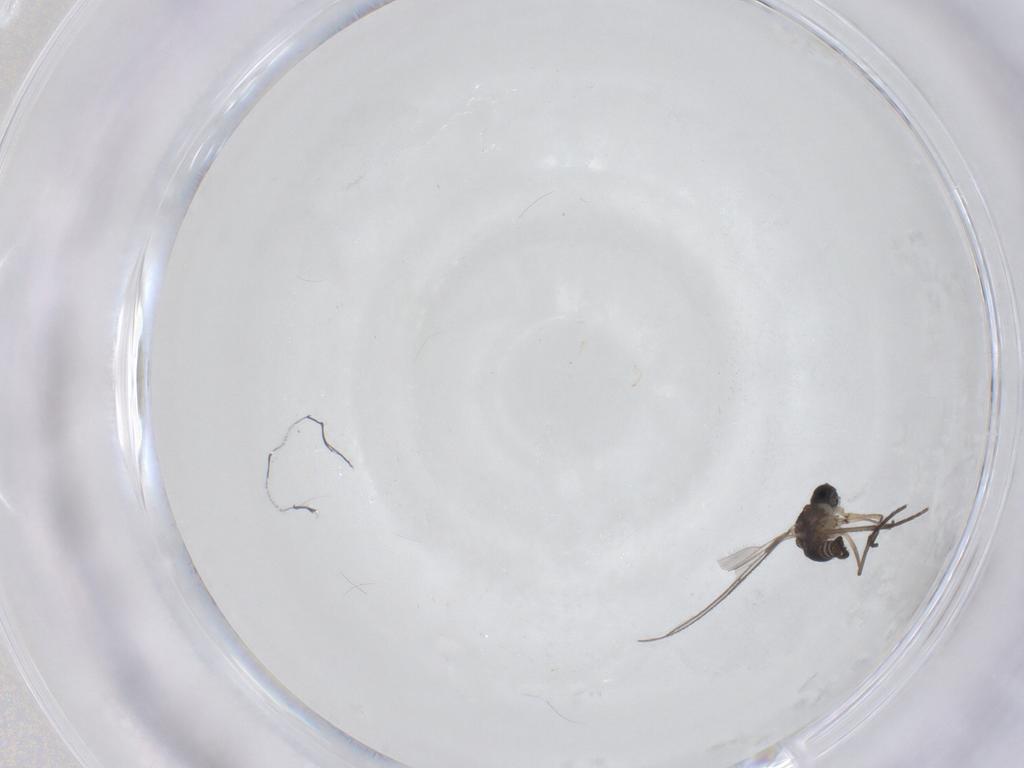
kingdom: Animalia
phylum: Arthropoda
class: Insecta
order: Diptera
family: Sciaridae
